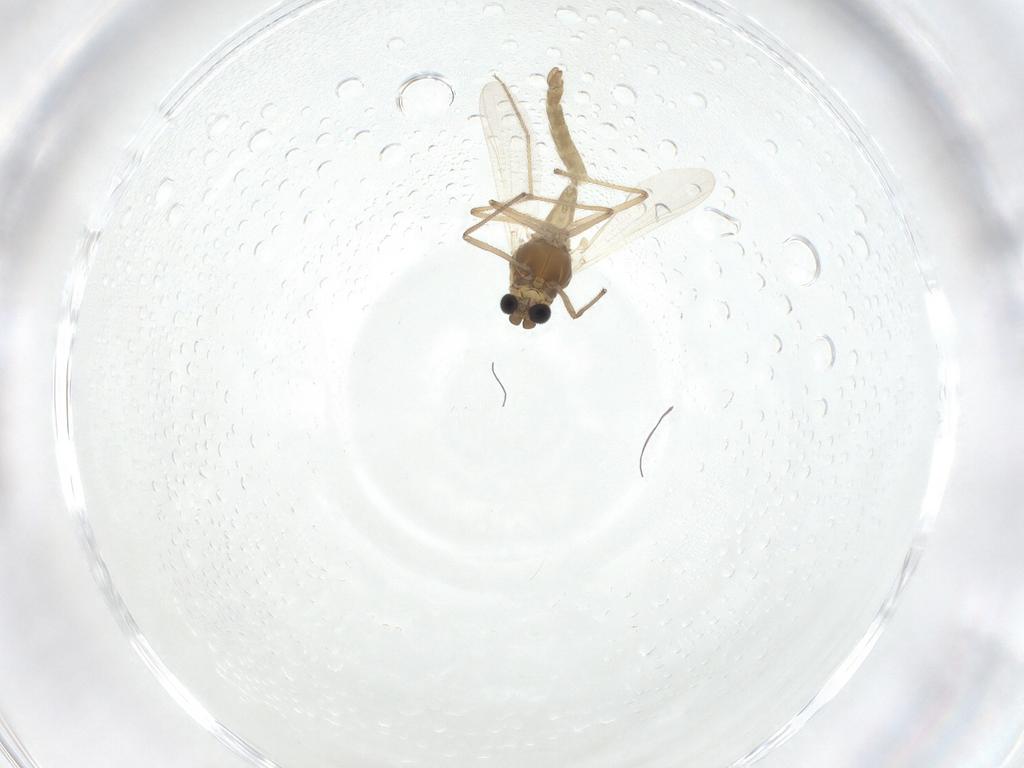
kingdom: Animalia
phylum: Arthropoda
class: Insecta
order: Diptera
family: Chironomidae
